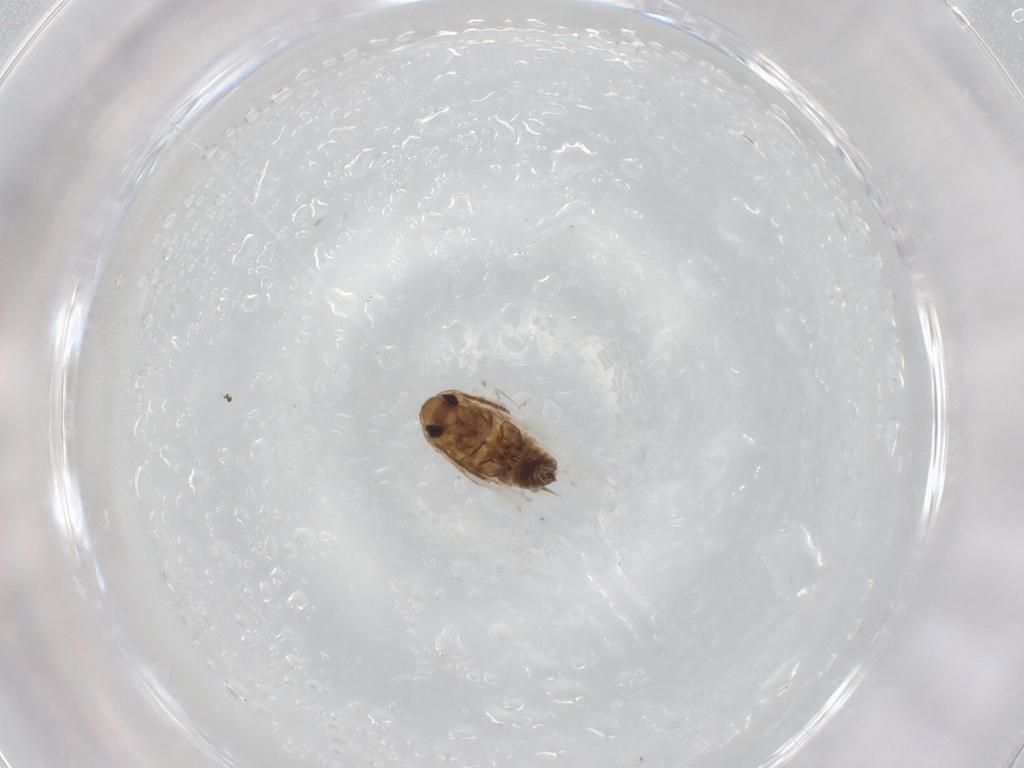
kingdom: Animalia
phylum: Arthropoda
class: Insecta
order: Lepidoptera
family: Nymphalidae
